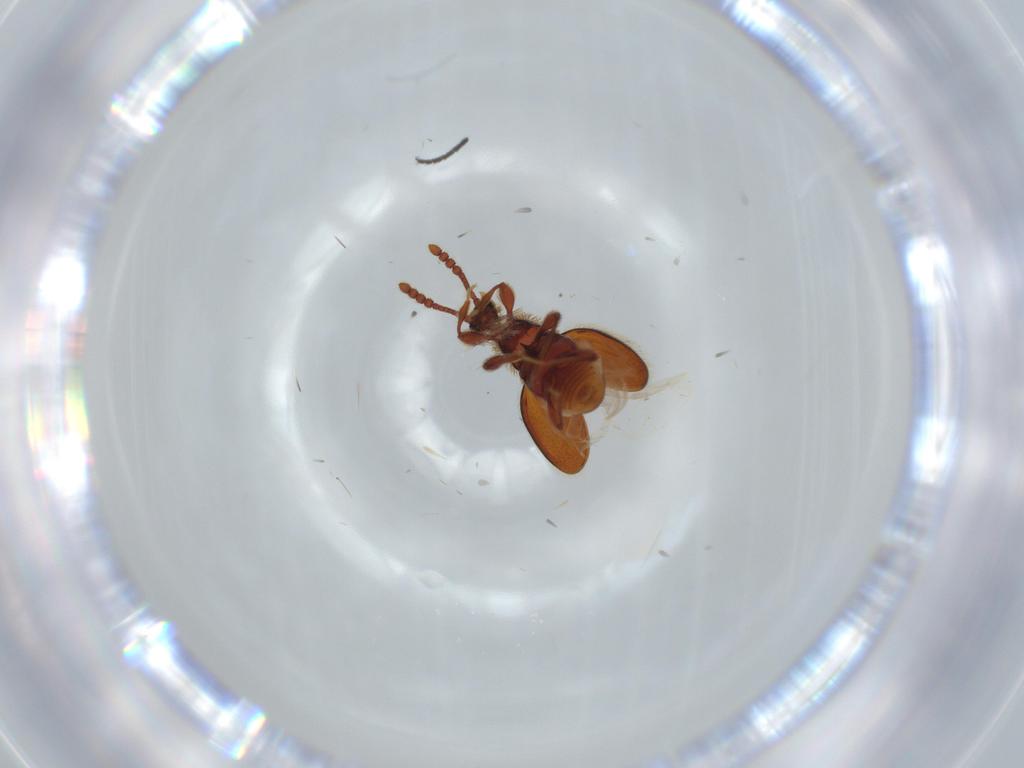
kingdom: Animalia
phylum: Arthropoda
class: Insecta
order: Coleoptera
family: Staphylinidae
